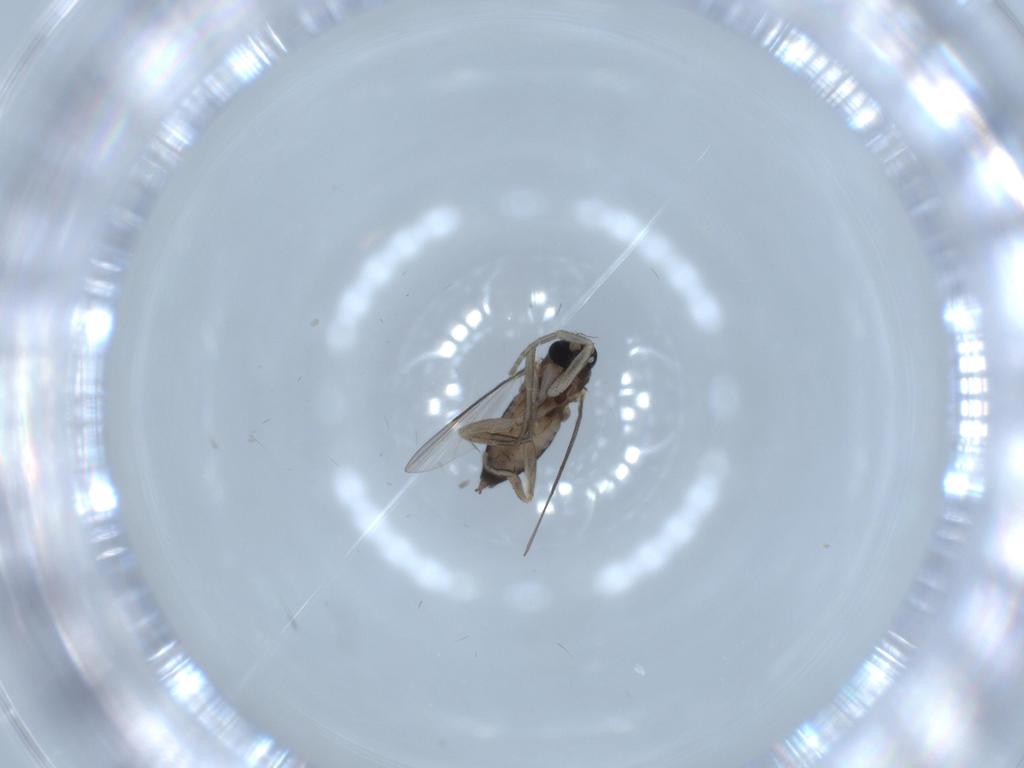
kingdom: Animalia
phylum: Arthropoda
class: Insecta
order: Diptera
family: Phoridae
